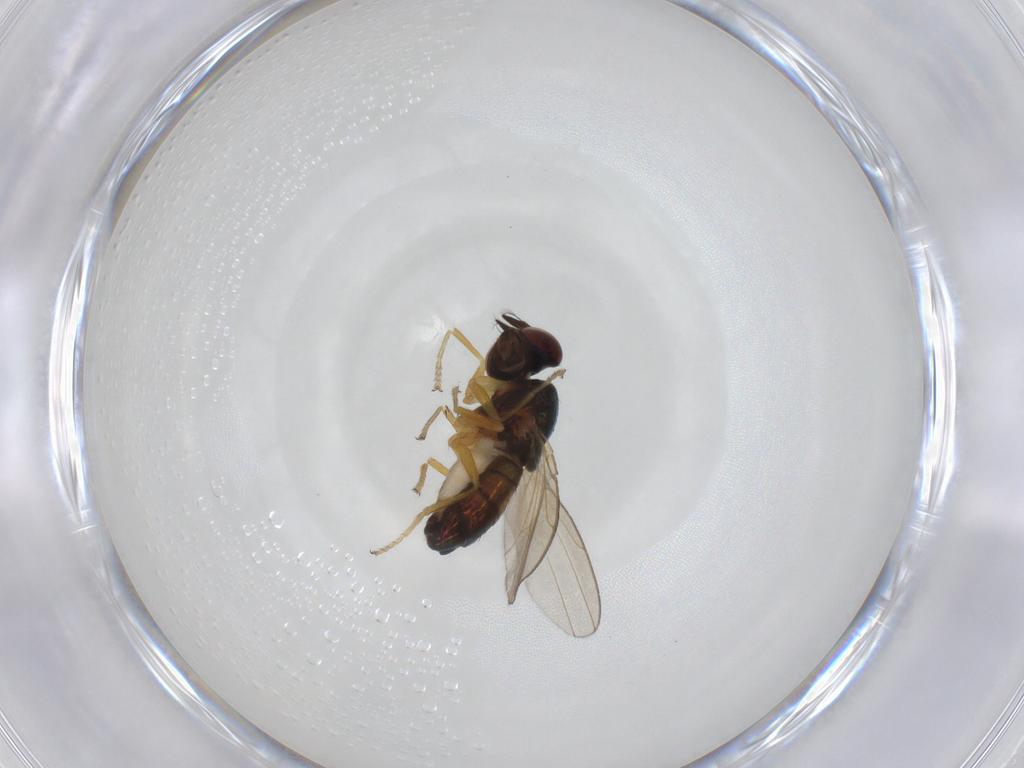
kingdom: Animalia
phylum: Arthropoda
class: Insecta
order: Diptera
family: Muscidae
